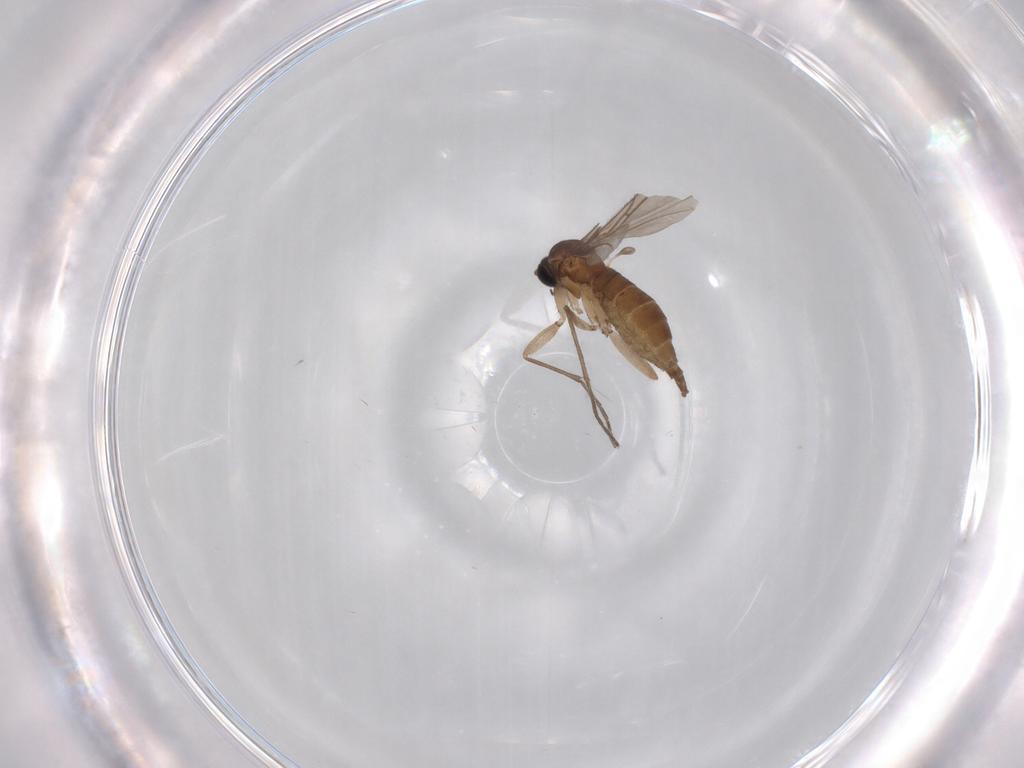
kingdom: Animalia
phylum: Arthropoda
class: Insecta
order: Diptera
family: Sciaridae
